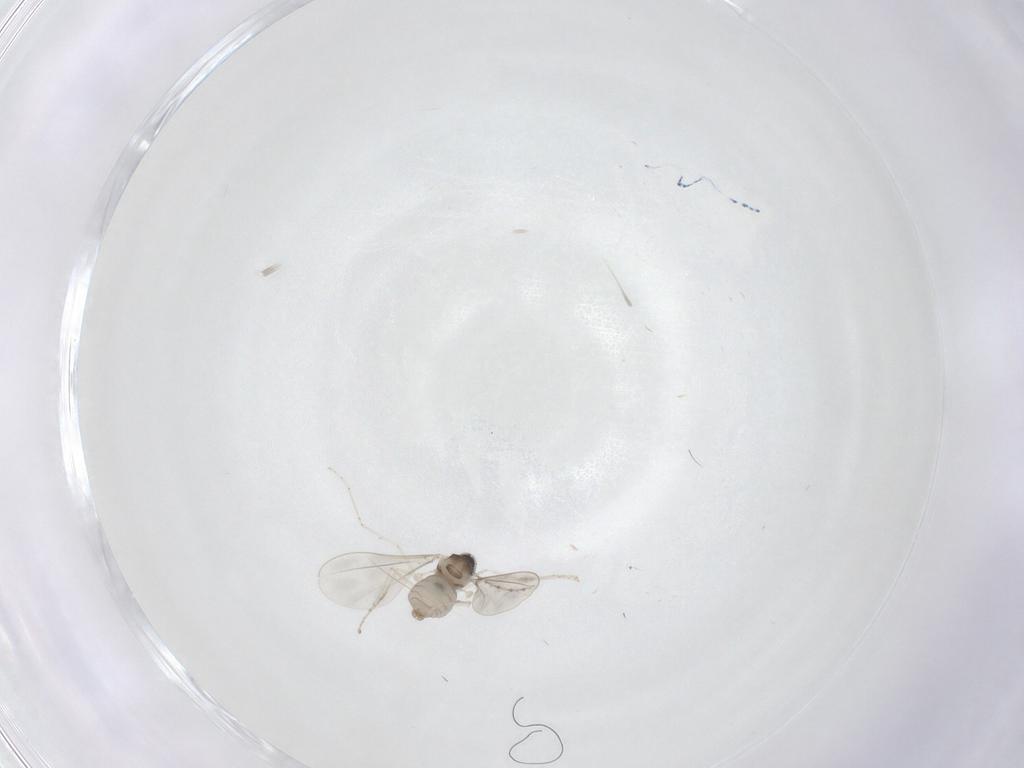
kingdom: Animalia
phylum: Arthropoda
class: Insecta
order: Diptera
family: Cecidomyiidae
